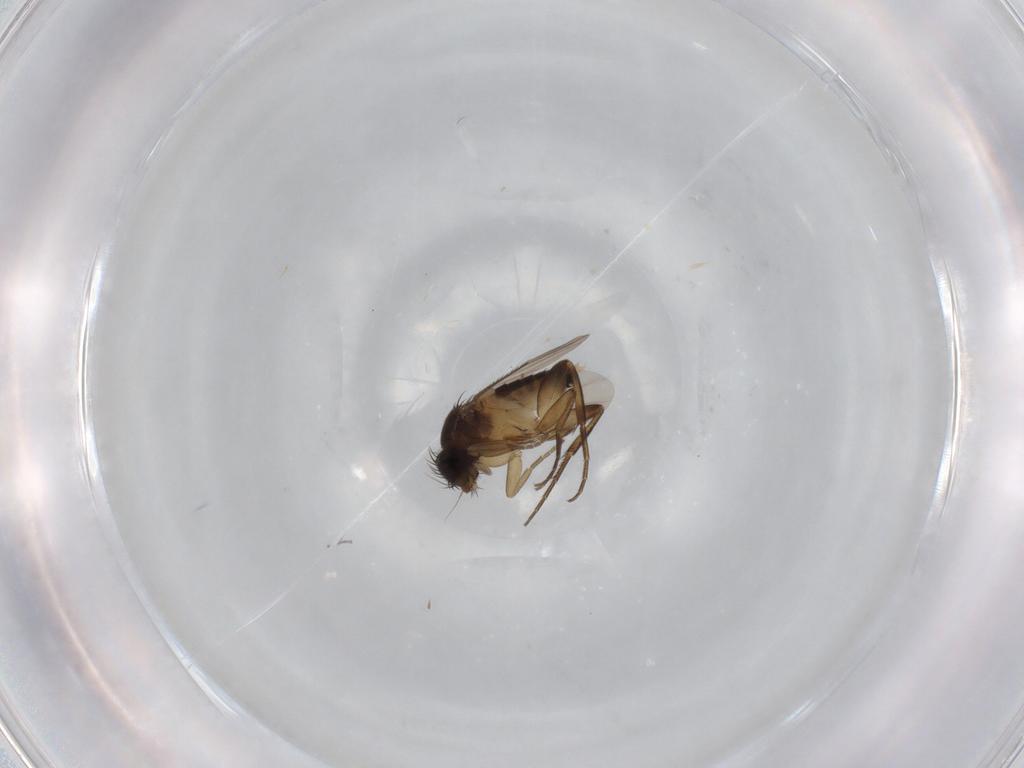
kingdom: Animalia
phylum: Arthropoda
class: Insecta
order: Diptera
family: Phoridae
